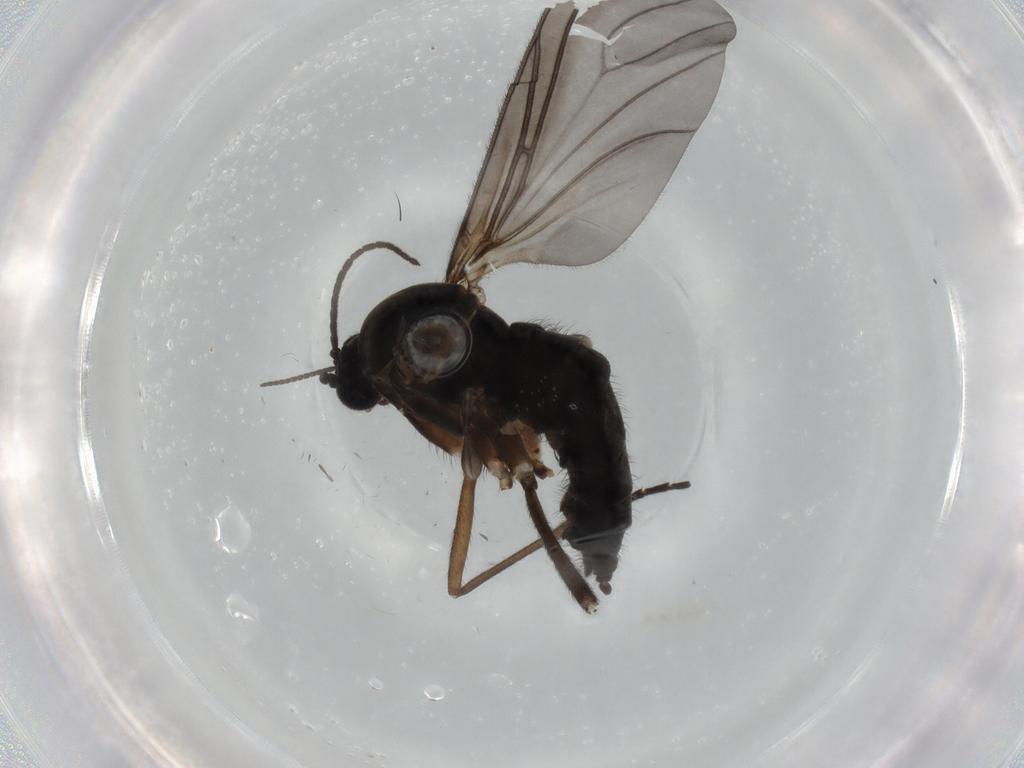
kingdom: Animalia
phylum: Arthropoda
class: Insecta
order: Diptera
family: Sciaridae
